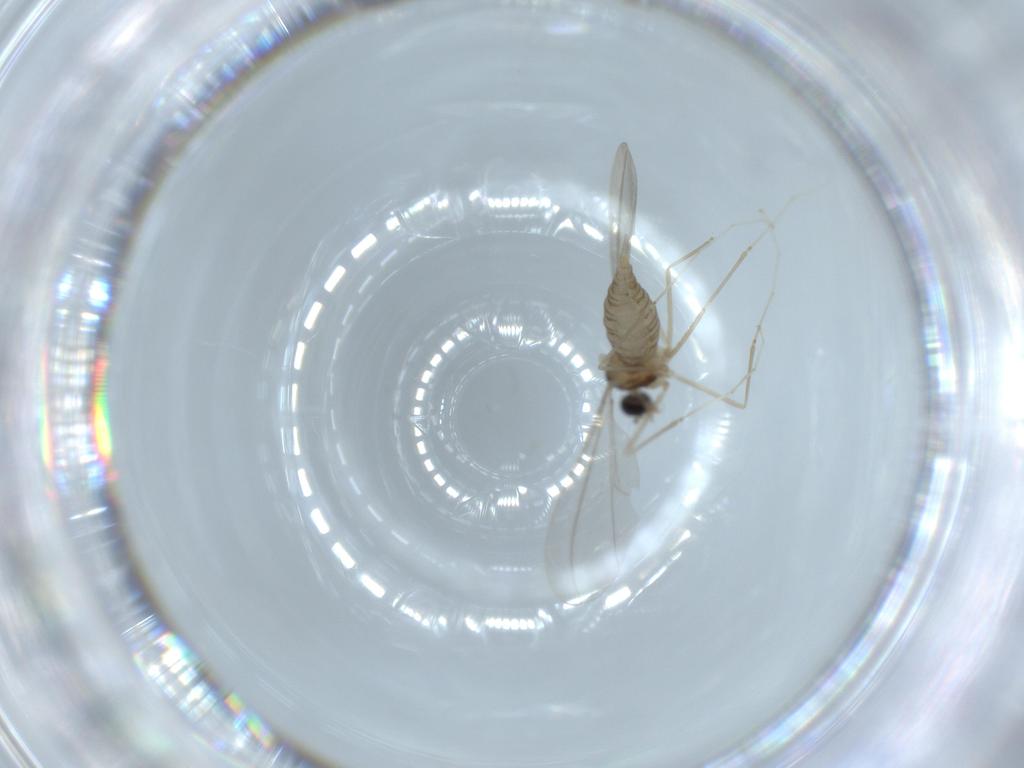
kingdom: Animalia
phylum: Arthropoda
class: Insecta
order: Diptera
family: Cecidomyiidae
